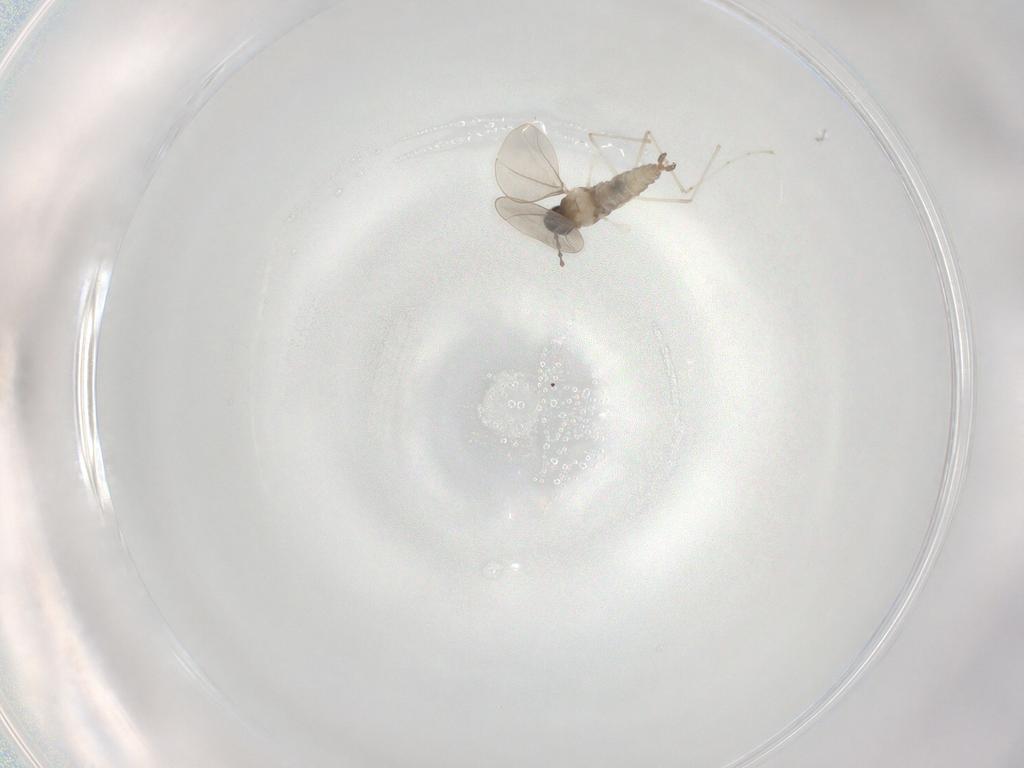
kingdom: Animalia
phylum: Arthropoda
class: Insecta
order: Diptera
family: Cecidomyiidae
